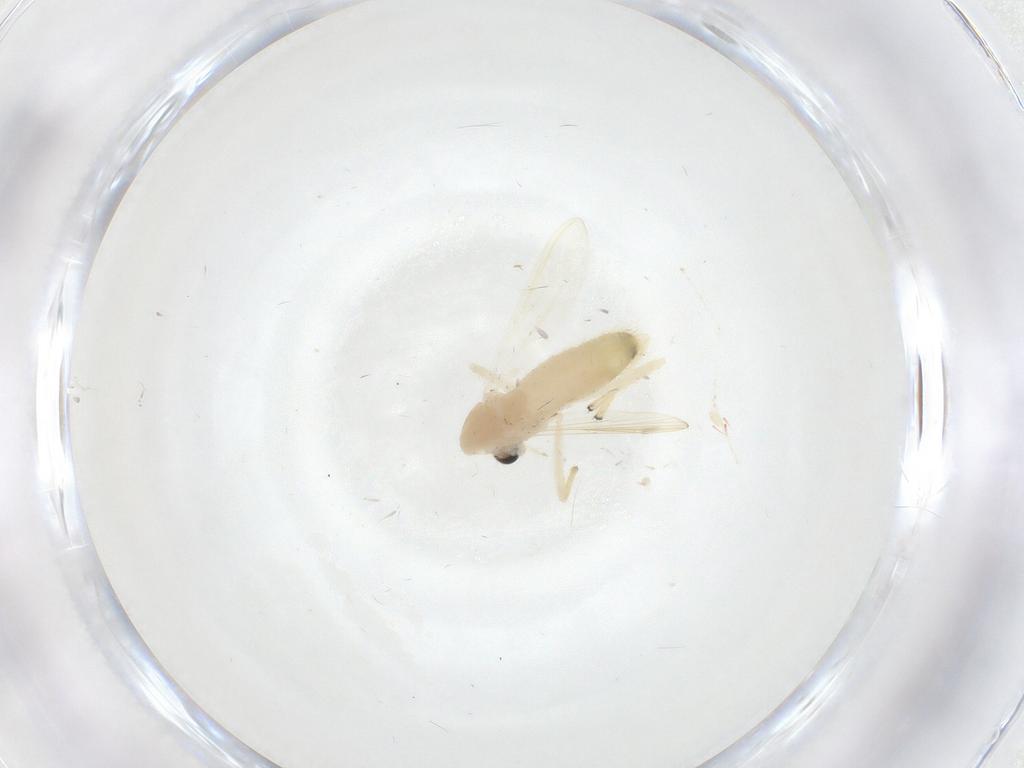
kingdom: Animalia
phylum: Arthropoda
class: Insecta
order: Diptera
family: Chironomidae
